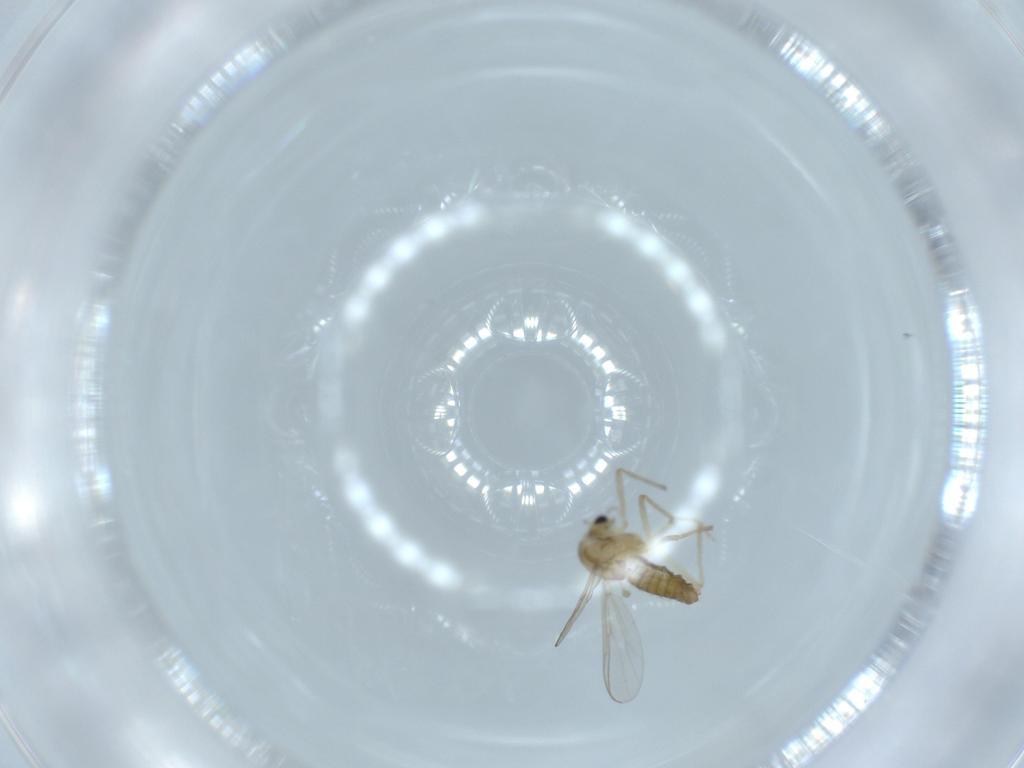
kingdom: Animalia
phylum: Arthropoda
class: Insecta
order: Diptera
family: Chironomidae
